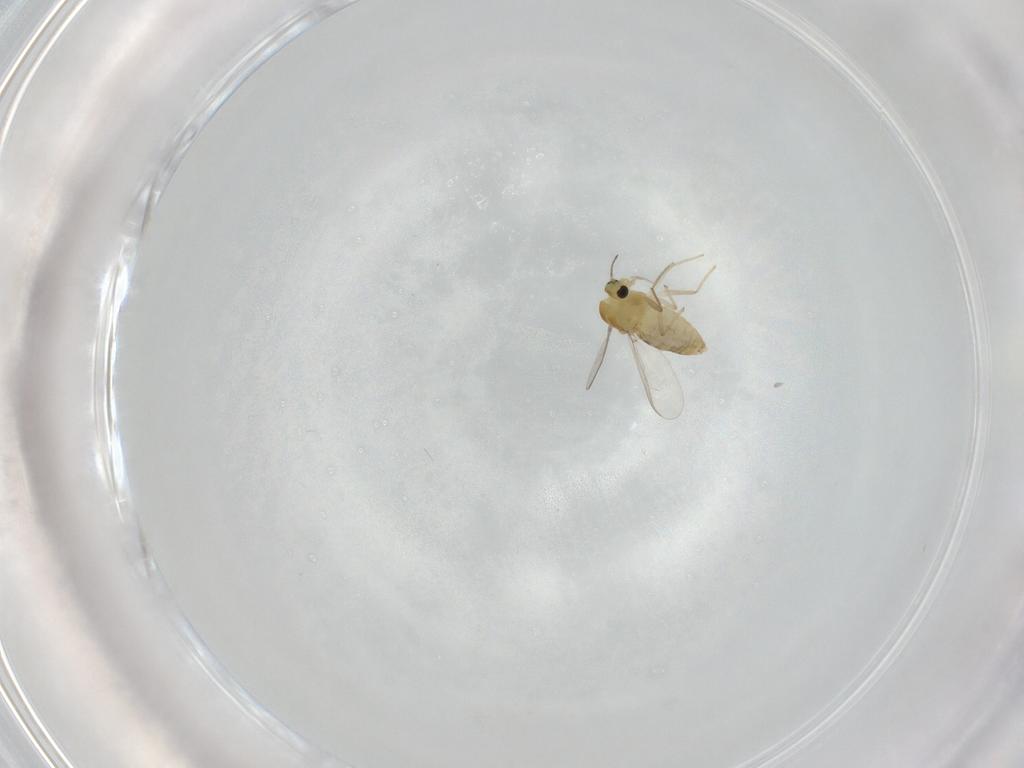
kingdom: Animalia
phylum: Arthropoda
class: Insecta
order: Diptera
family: Chironomidae
